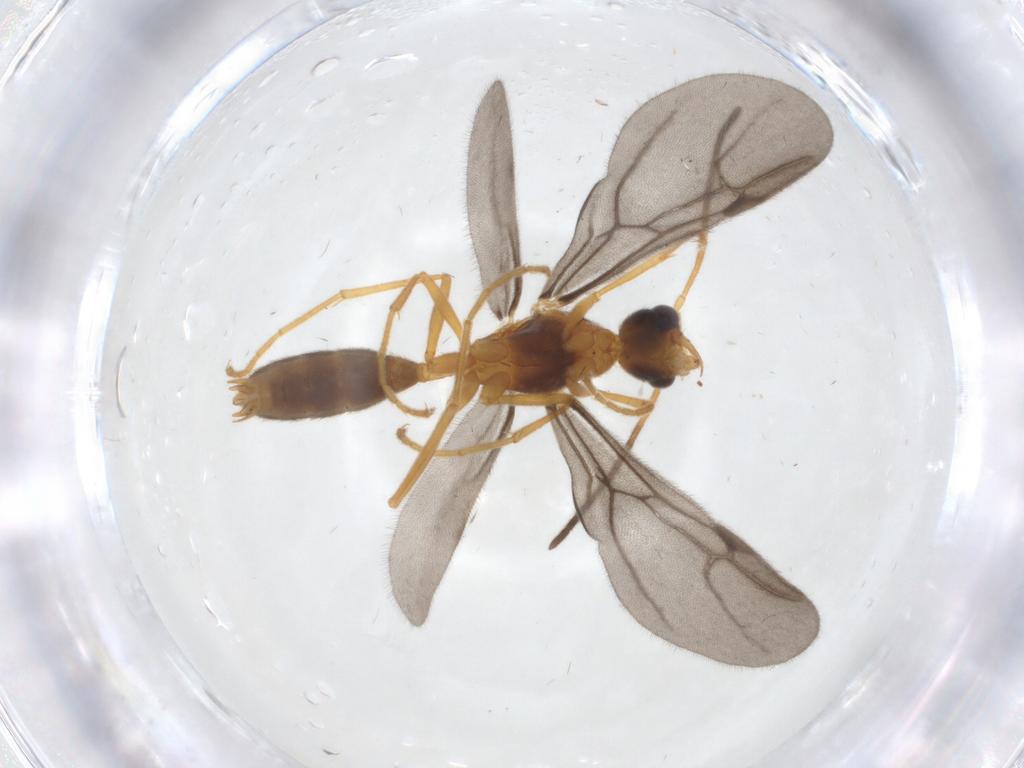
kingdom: Animalia
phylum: Arthropoda
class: Insecta
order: Hymenoptera
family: Formicidae
